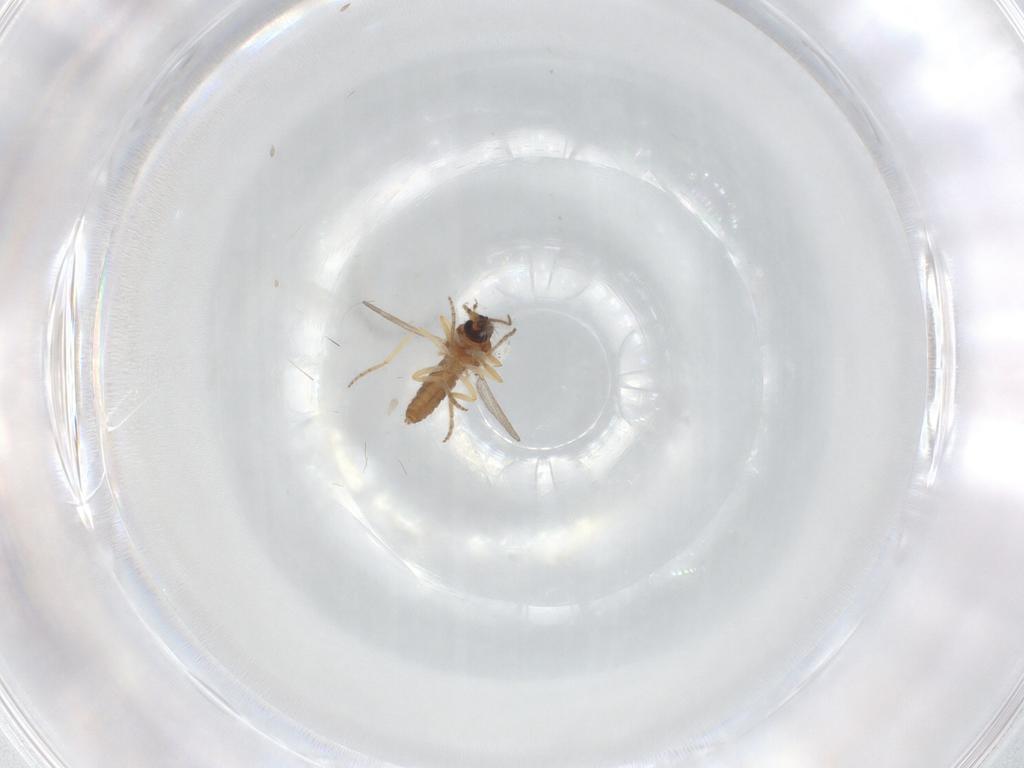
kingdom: Animalia
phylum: Arthropoda
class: Insecta
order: Diptera
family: Ceratopogonidae
